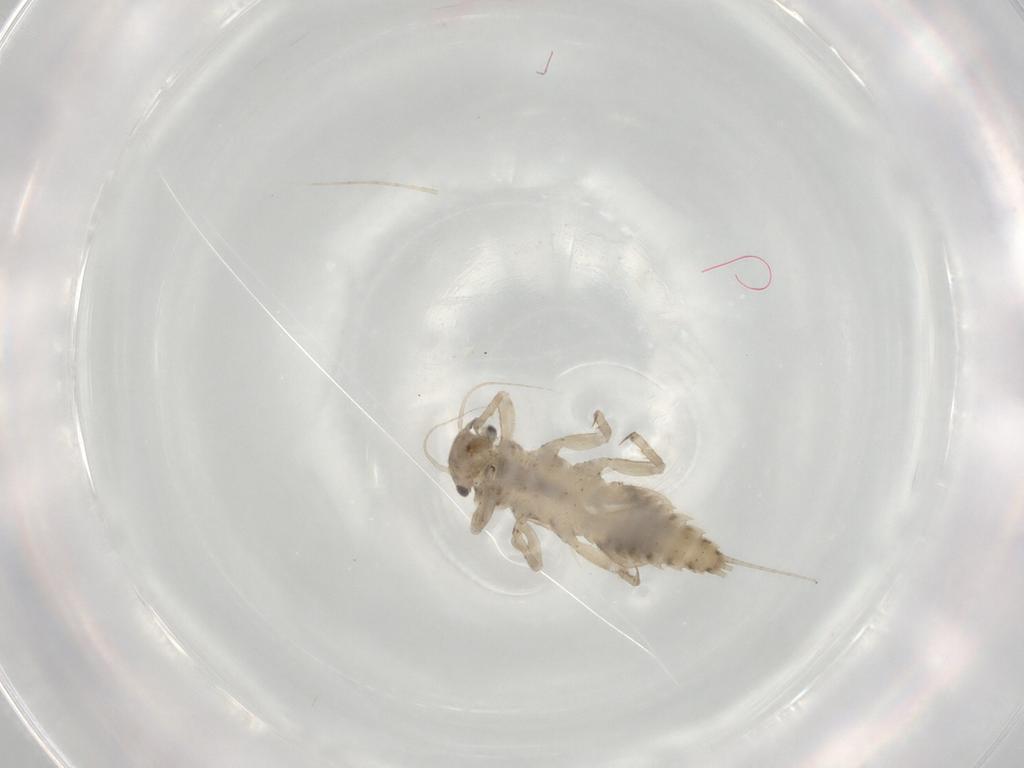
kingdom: Animalia
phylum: Arthropoda
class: Insecta
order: Ephemeroptera
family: Caenidae
